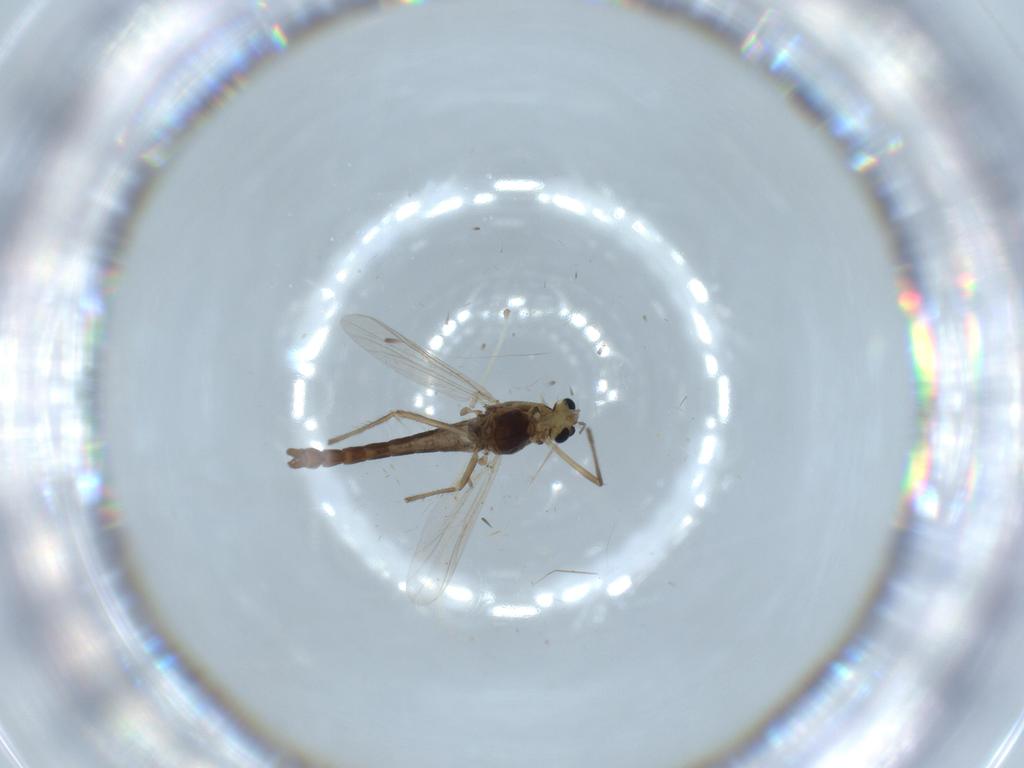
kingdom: Animalia
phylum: Arthropoda
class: Insecta
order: Diptera
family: Chironomidae
